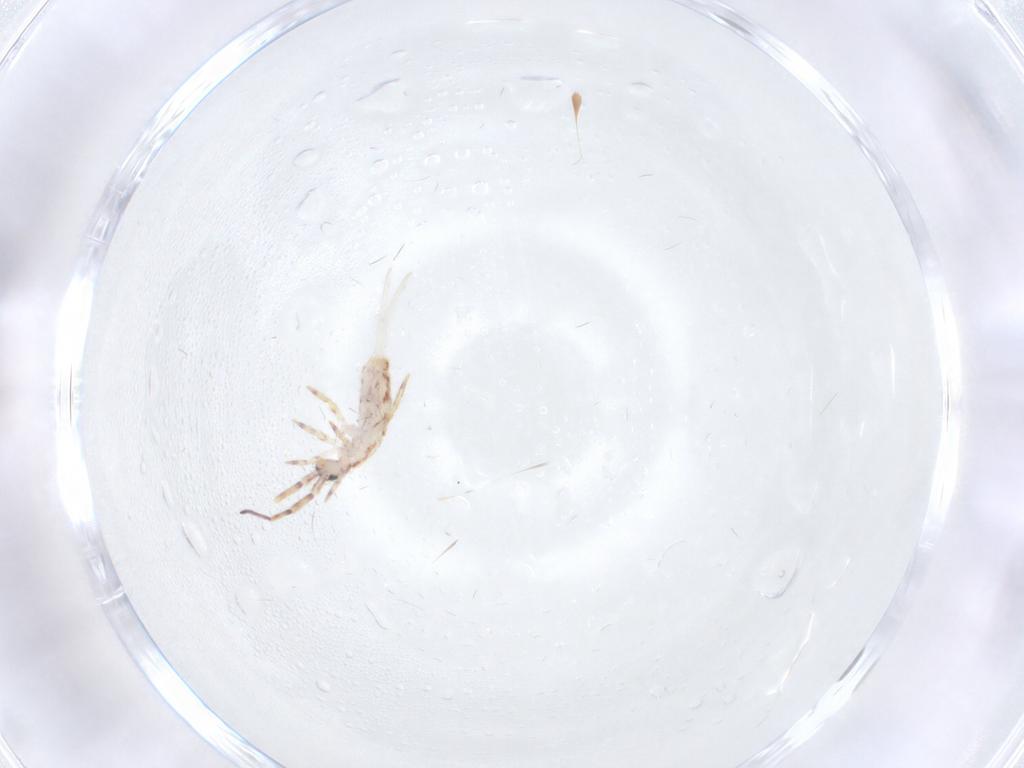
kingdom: Animalia
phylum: Arthropoda
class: Collembola
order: Entomobryomorpha
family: Entomobryidae
